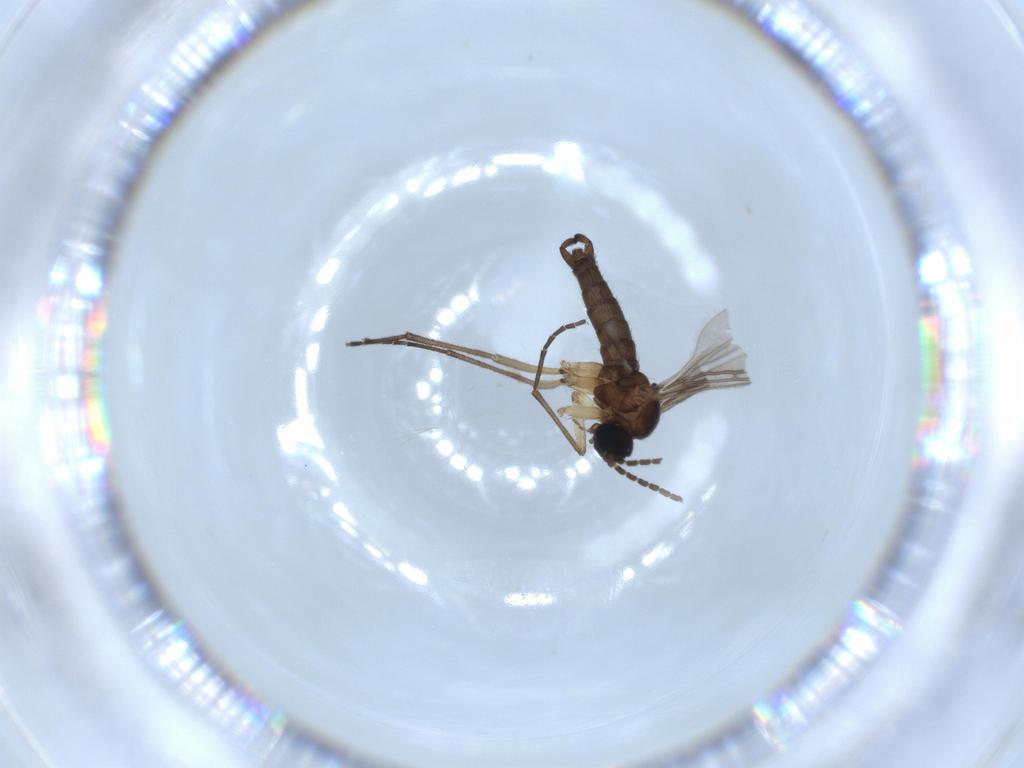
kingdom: Animalia
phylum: Arthropoda
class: Insecta
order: Diptera
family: Sciaridae
